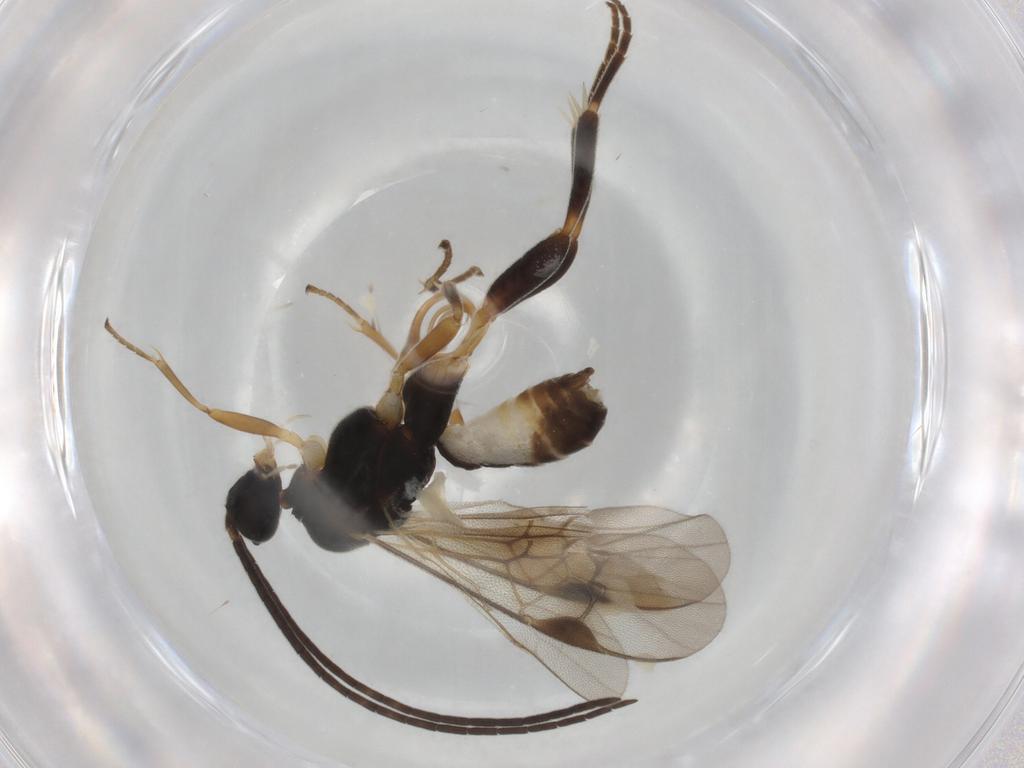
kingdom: Animalia
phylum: Arthropoda
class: Insecta
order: Hymenoptera
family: Braconidae
